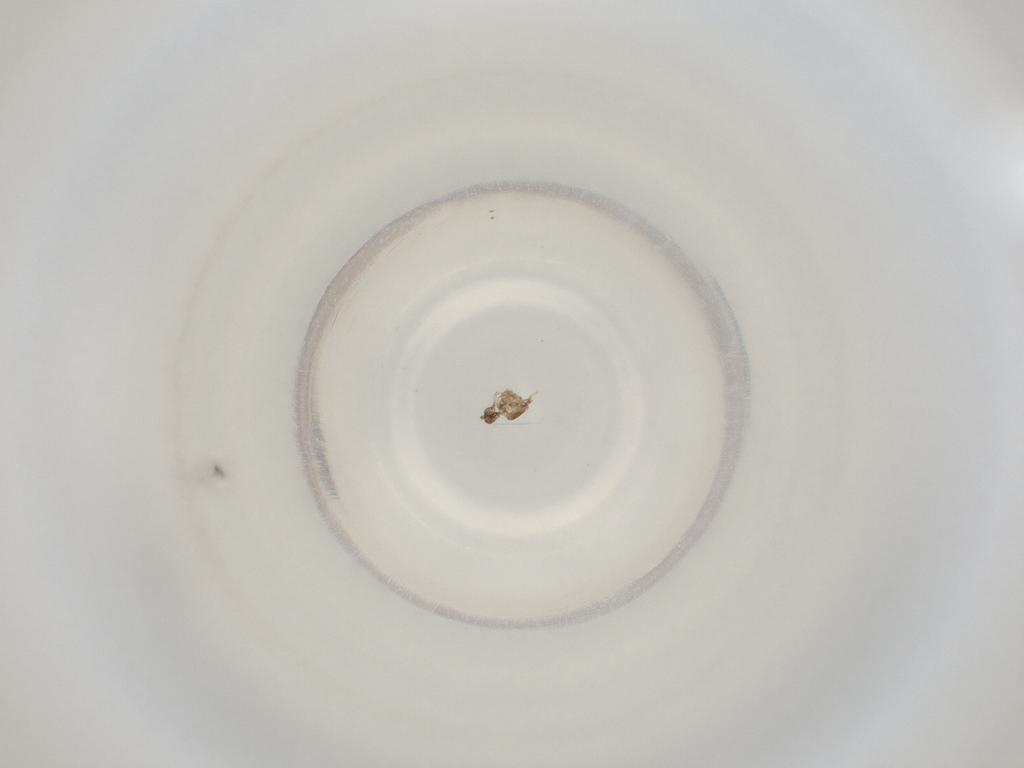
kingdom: Animalia
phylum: Arthropoda
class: Insecta
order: Diptera
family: Cecidomyiidae
